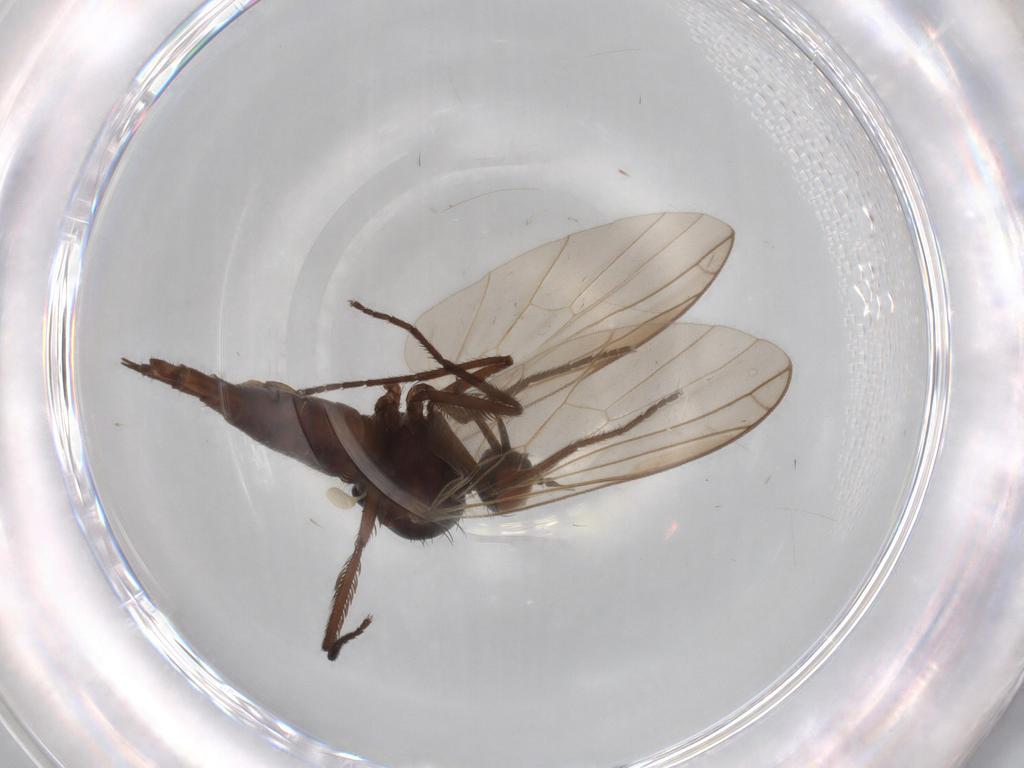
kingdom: Animalia
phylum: Arthropoda
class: Insecta
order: Diptera
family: Empididae
